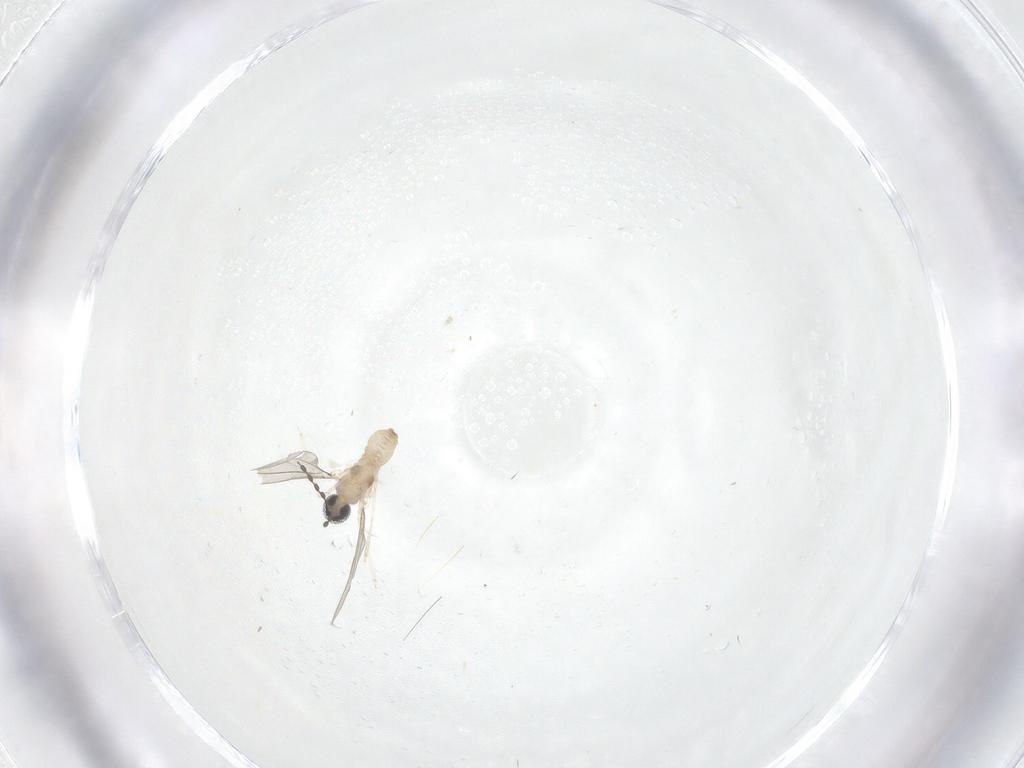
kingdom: Animalia
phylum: Arthropoda
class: Insecta
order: Diptera
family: Cecidomyiidae
